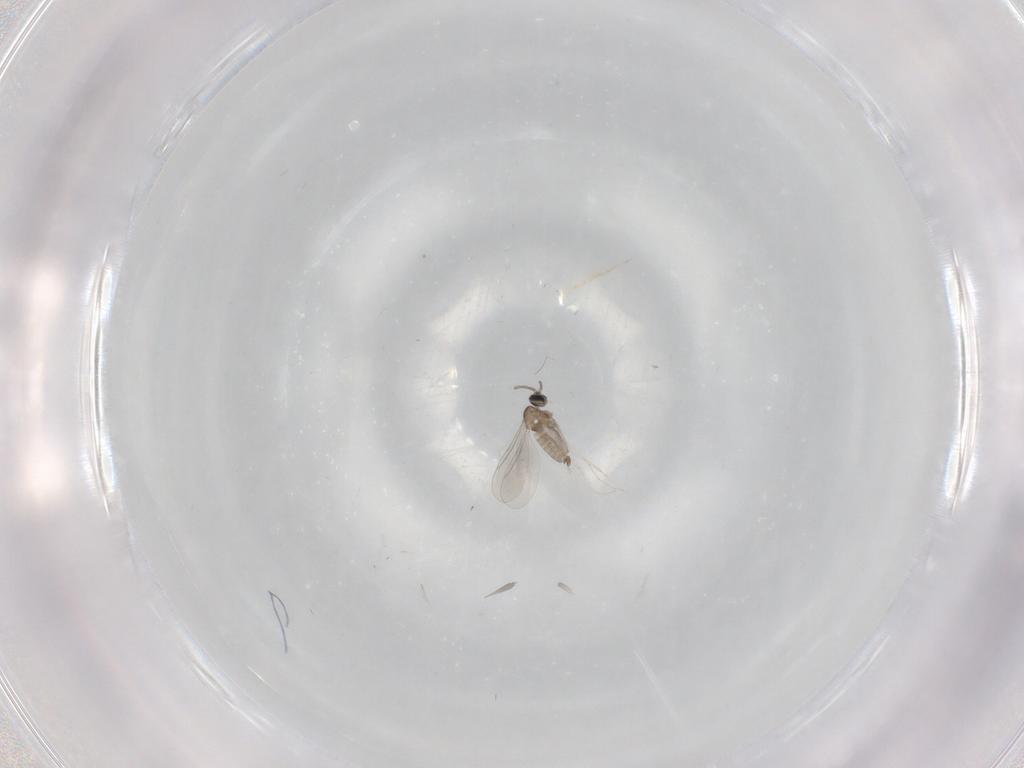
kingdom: Animalia
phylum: Arthropoda
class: Insecta
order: Diptera
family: Cecidomyiidae
